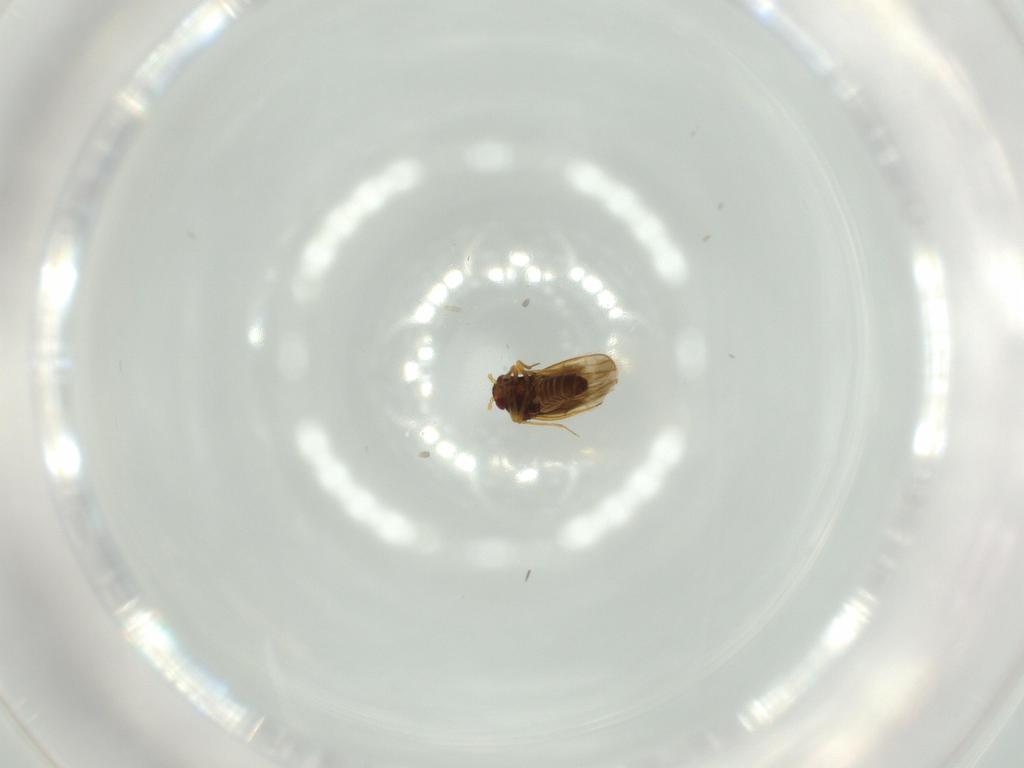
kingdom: Animalia
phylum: Arthropoda
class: Insecta
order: Hemiptera
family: Schizopteridae
